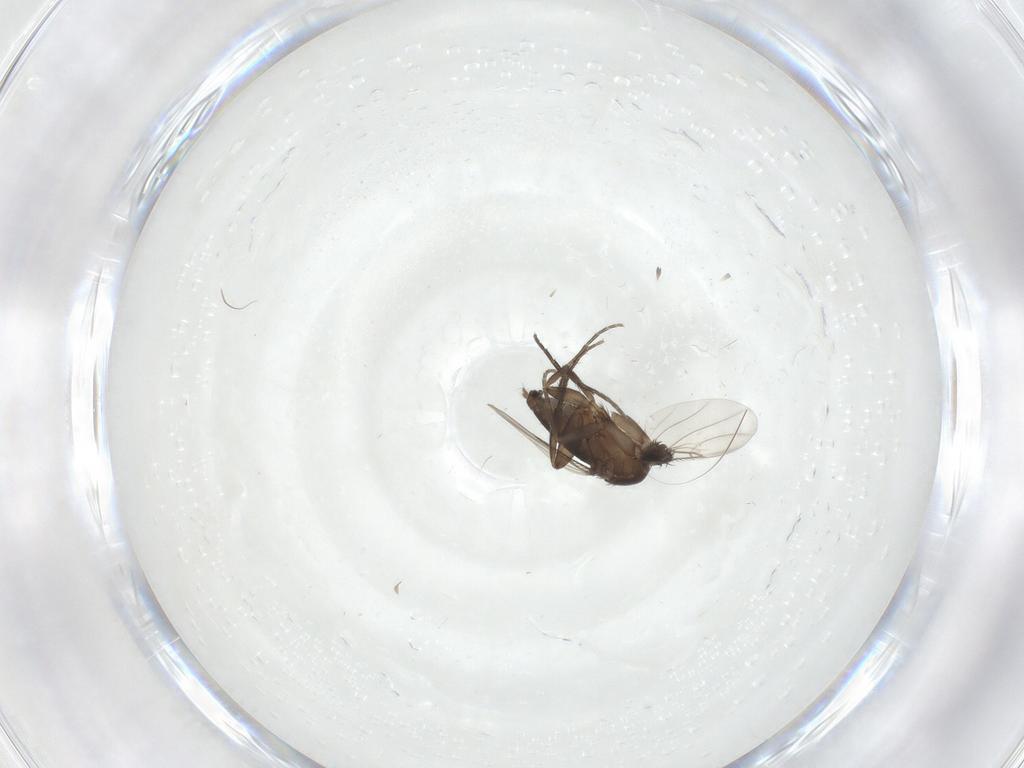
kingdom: Animalia
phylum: Arthropoda
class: Insecta
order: Diptera
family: Phoridae
